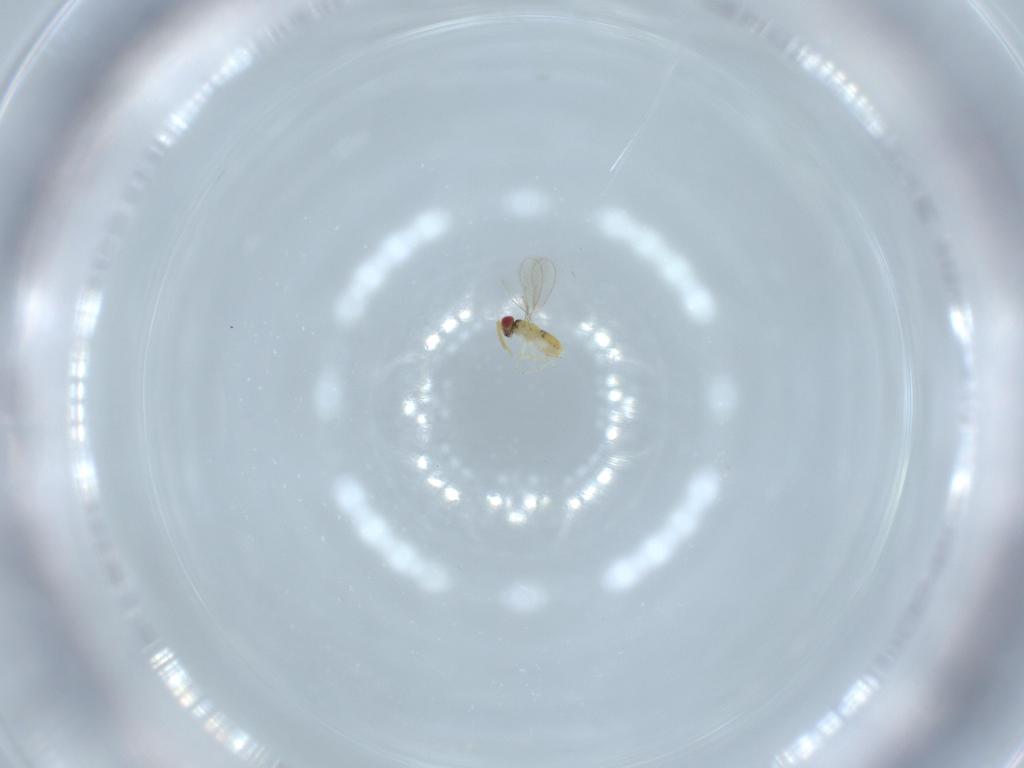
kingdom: Animalia
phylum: Arthropoda
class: Insecta
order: Hymenoptera
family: Aphelinidae
